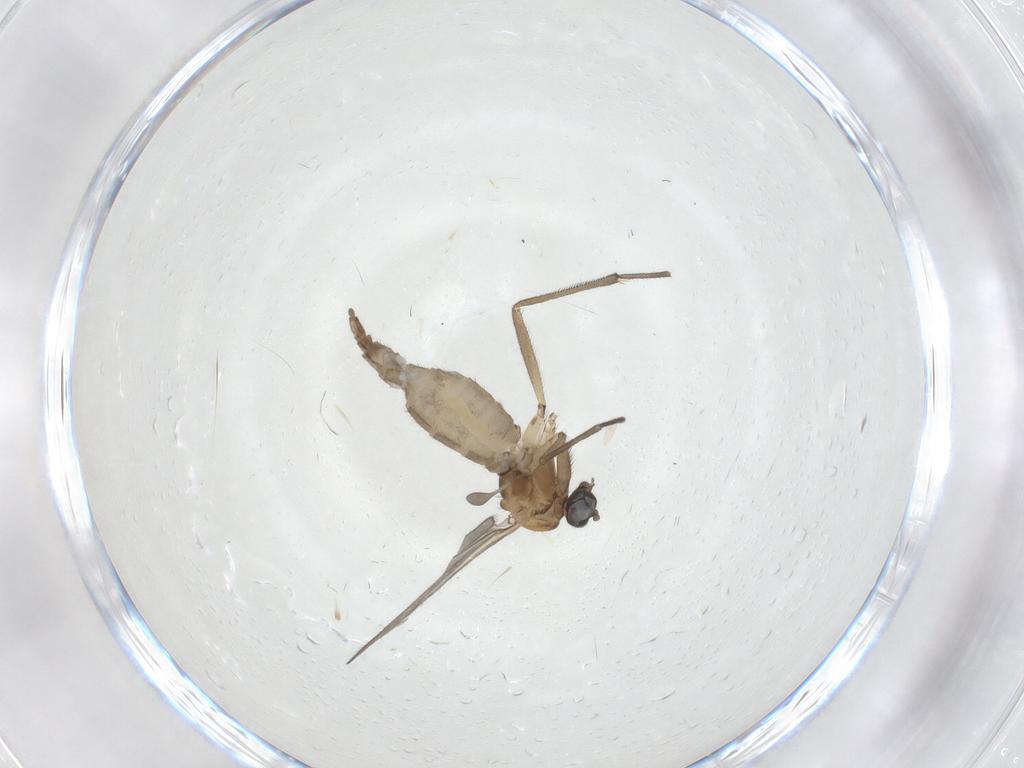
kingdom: Animalia
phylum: Arthropoda
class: Insecta
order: Diptera
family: Sciaridae
